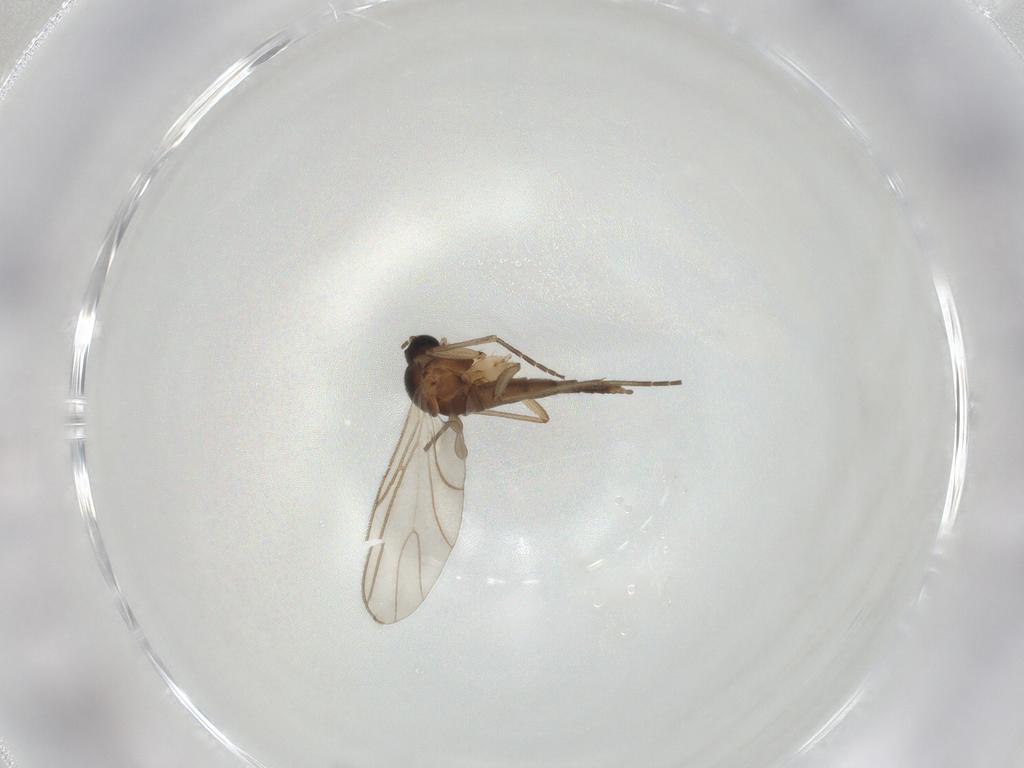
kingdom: Animalia
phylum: Arthropoda
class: Insecta
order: Diptera
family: Sciaridae
